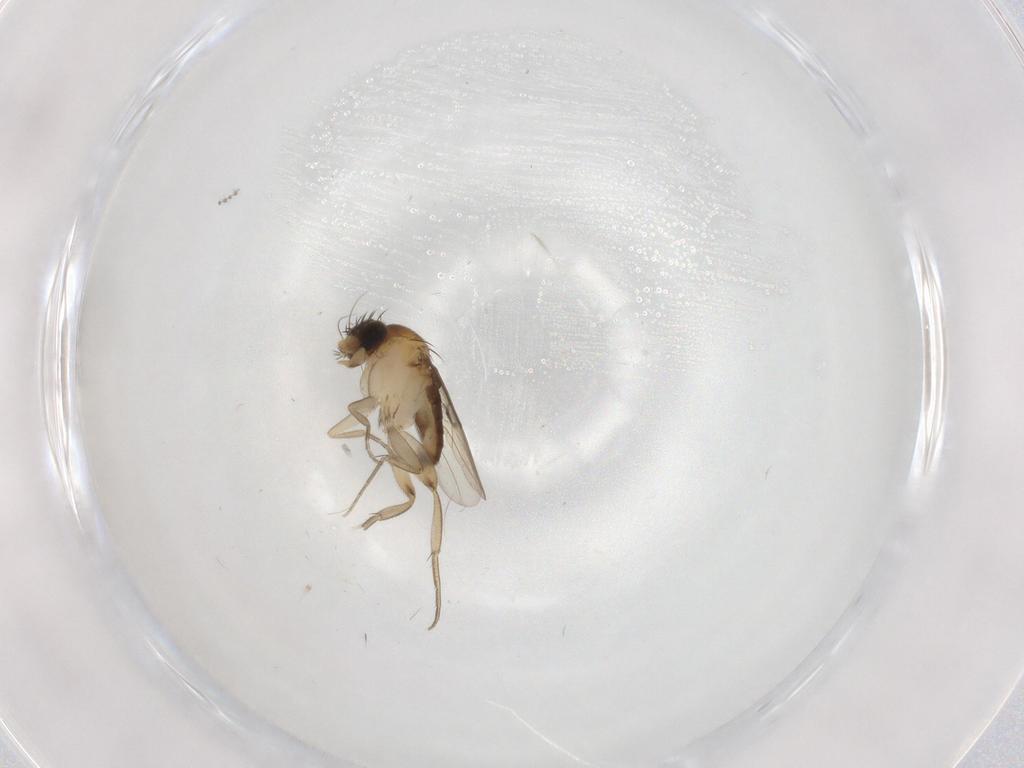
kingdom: Animalia
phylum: Arthropoda
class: Insecta
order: Diptera
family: Phoridae
